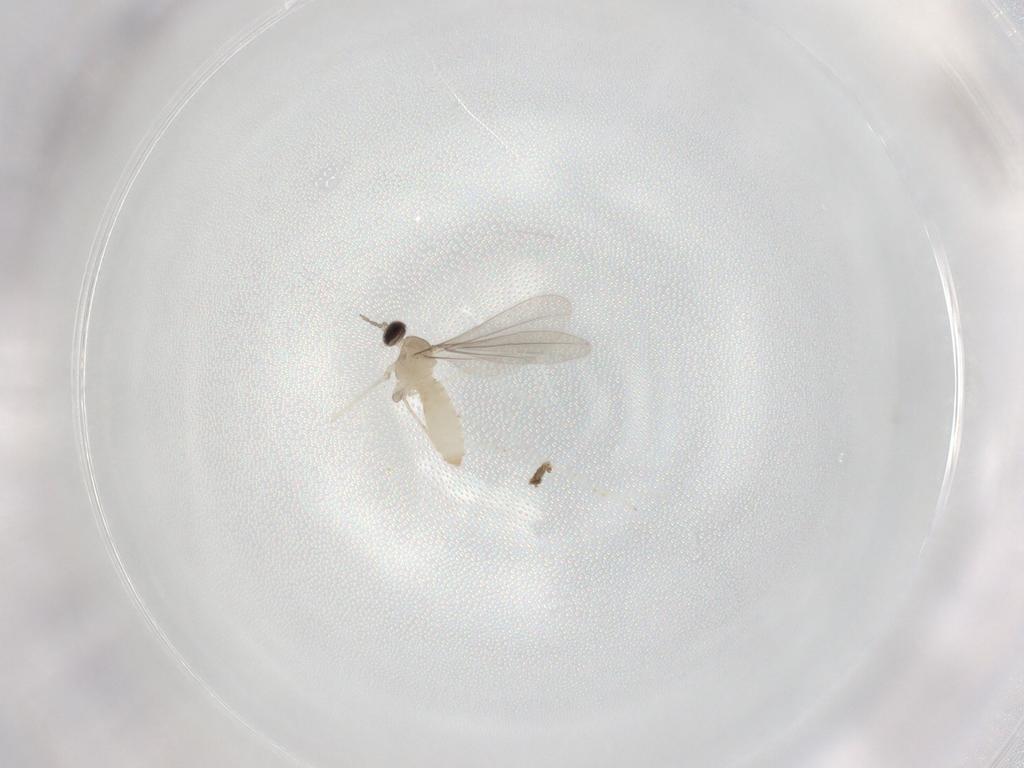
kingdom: Animalia
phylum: Arthropoda
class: Insecta
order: Diptera
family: Cecidomyiidae
